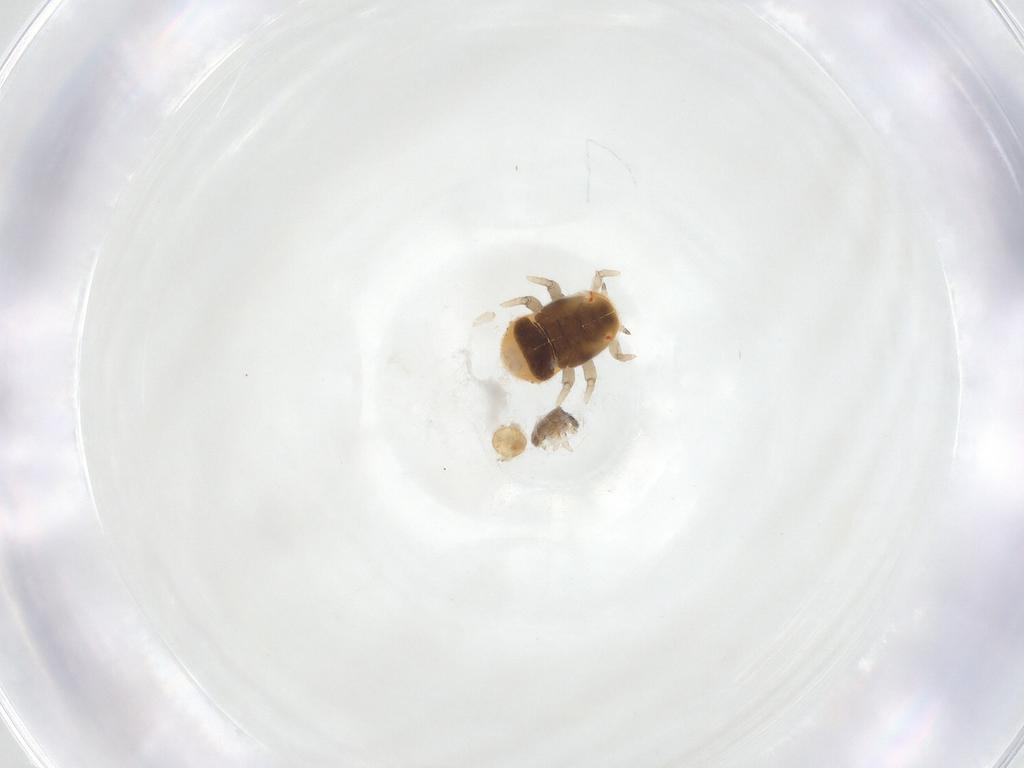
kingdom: Animalia
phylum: Arthropoda
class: Insecta
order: Hemiptera
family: Triozidae
